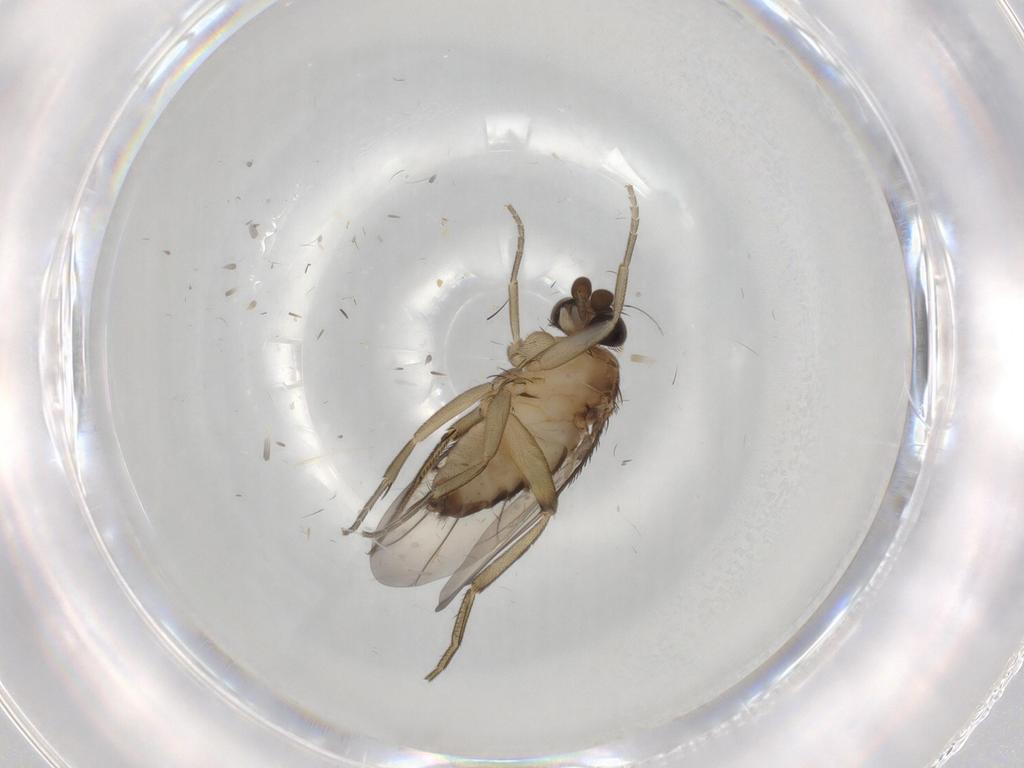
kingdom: Animalia
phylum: Arthropoda
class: Insecta
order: Diptera
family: Phoridae
